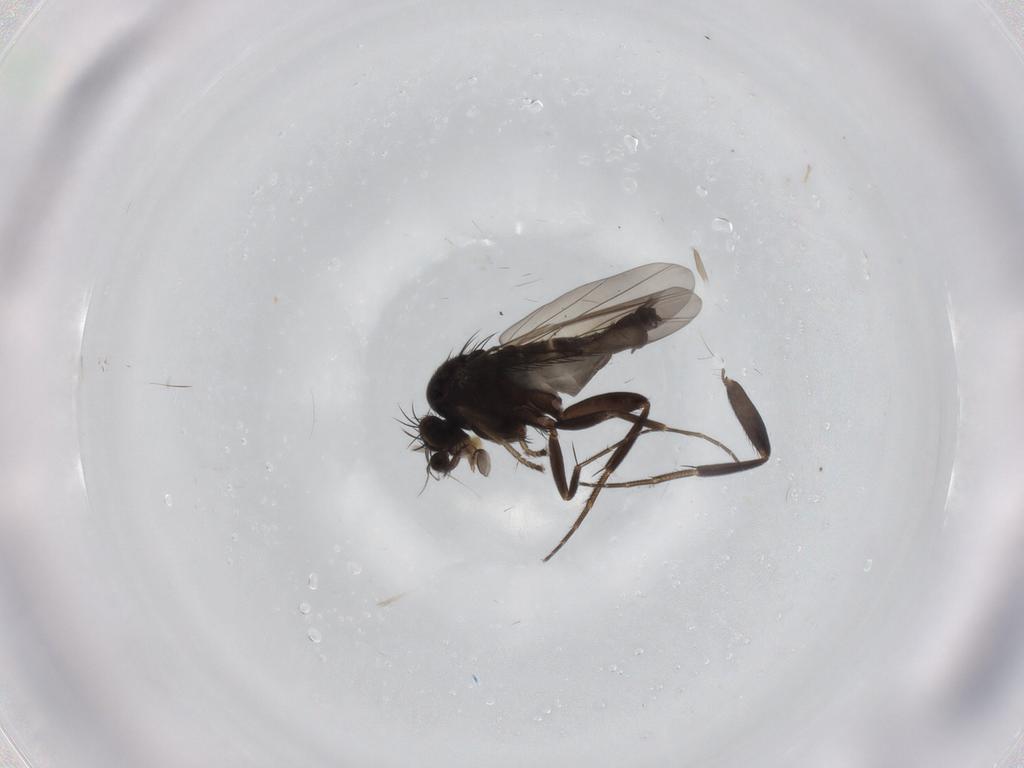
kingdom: Animalia
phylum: Arthropoda
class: Insecta
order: Diptera
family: Phoridae
